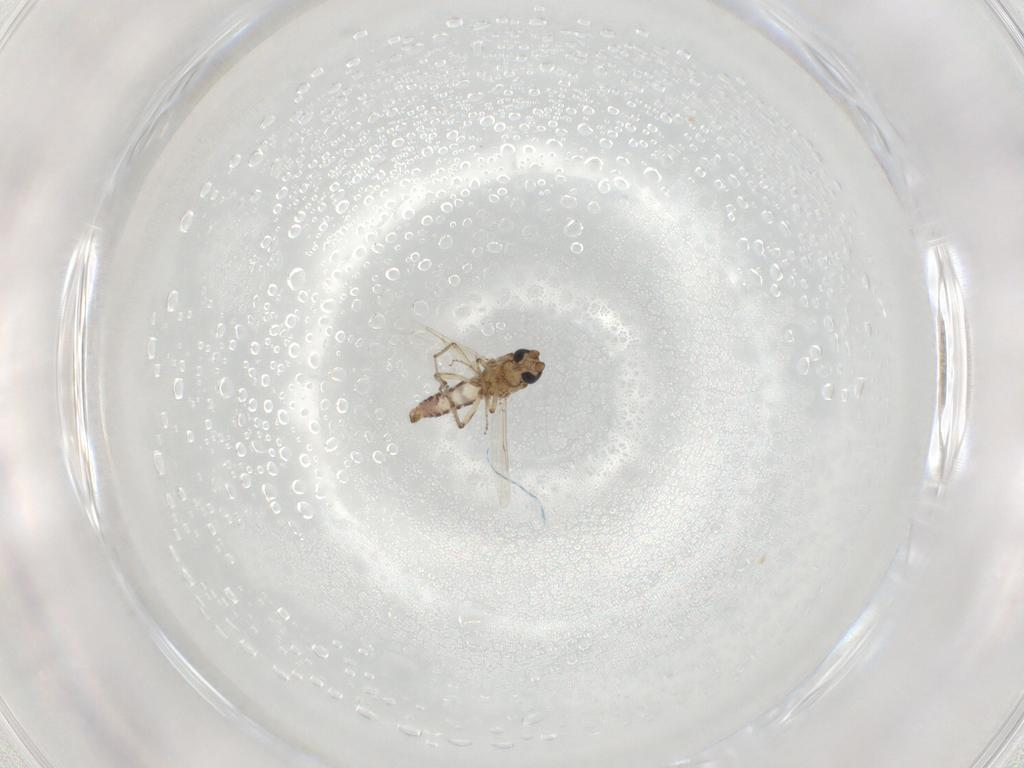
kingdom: Animalia
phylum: Arthropoda
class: Insecta
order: Diptera
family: Ceratopogonidae
